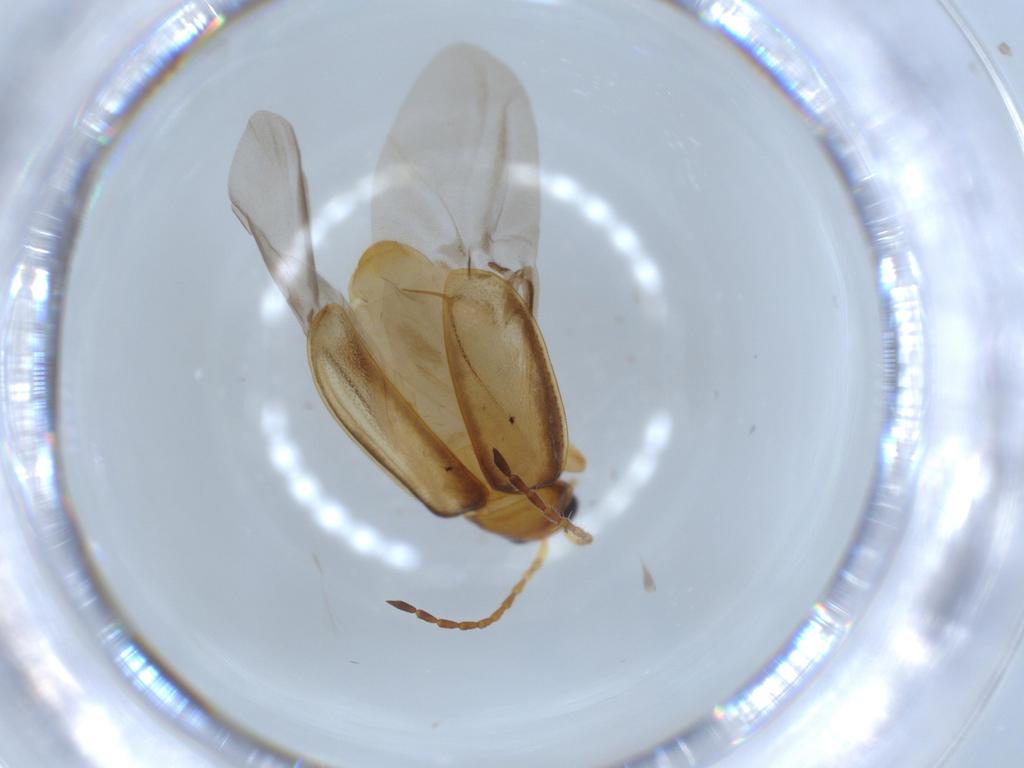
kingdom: Animalia
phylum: Arthropoda
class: Insecta
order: Coleoptera
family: Chrysomelidae
